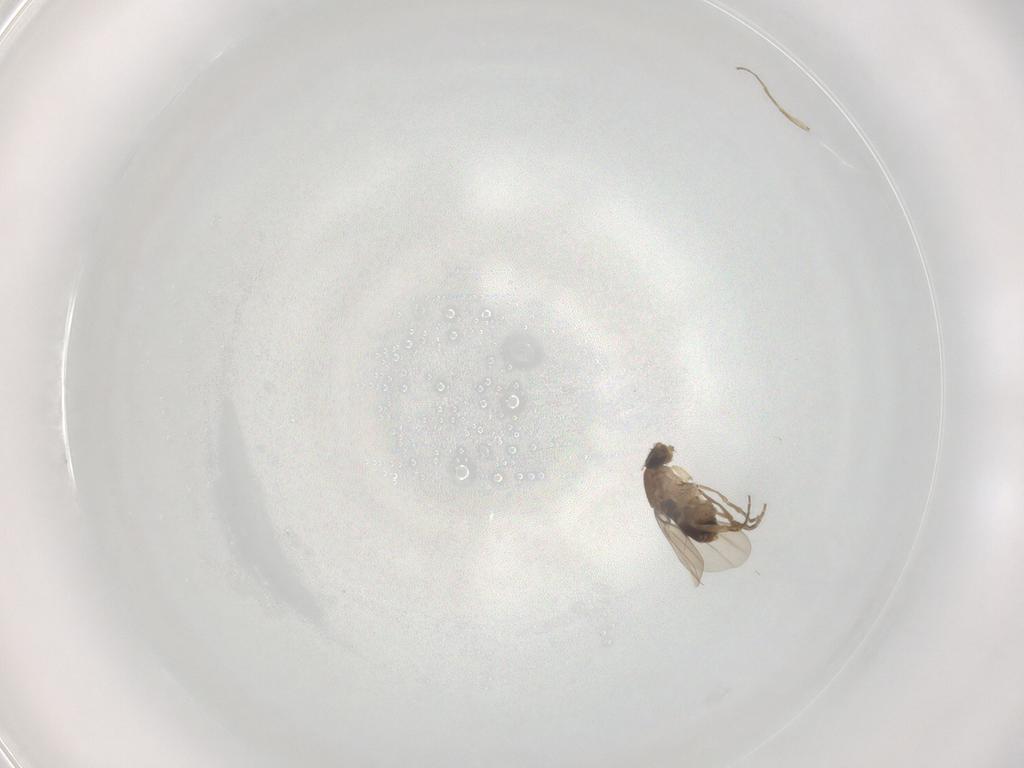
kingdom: Animalia
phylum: Arthropoda
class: Insecta
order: Diptera
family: Phoridae
